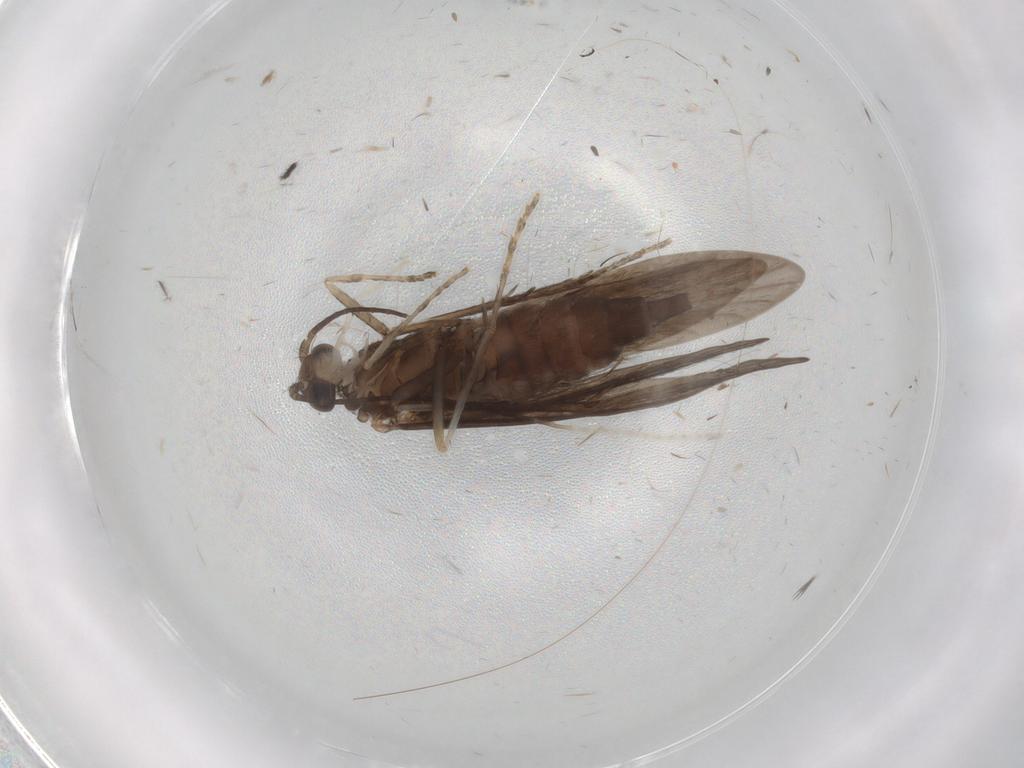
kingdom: Animalia
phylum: Arthropoda
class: Insecta
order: Trichoptera
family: Xiphocentronidae
